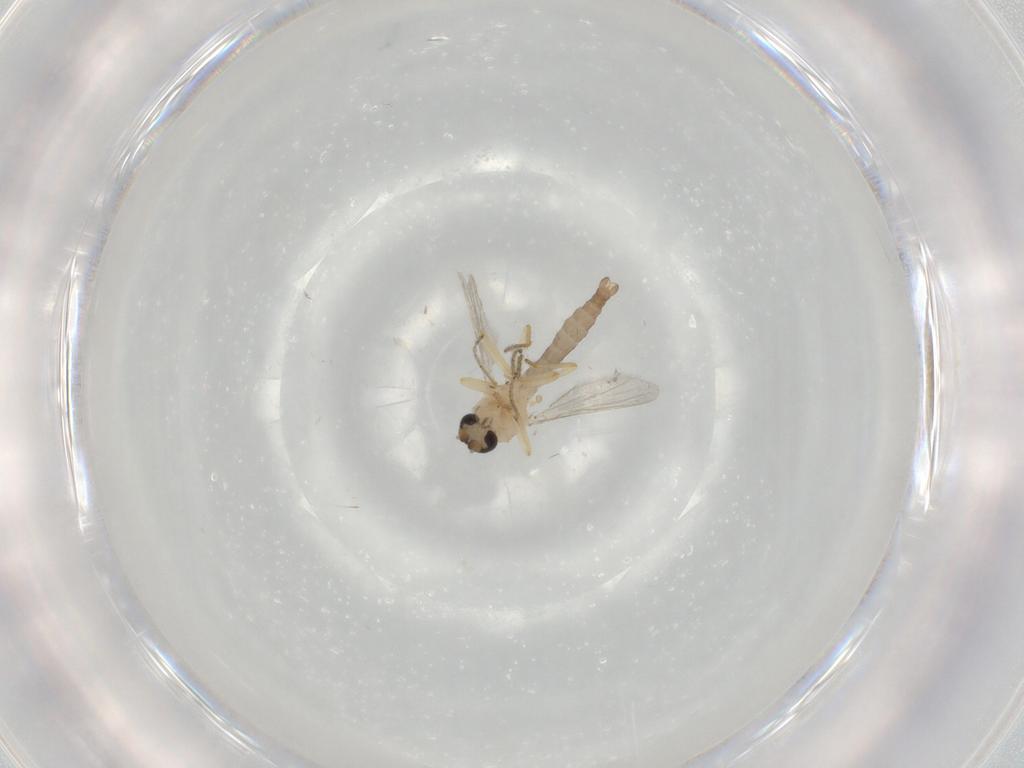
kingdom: Animalia
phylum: Arthropoda
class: Insecta
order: Diptera
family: Ceratopogonidae
